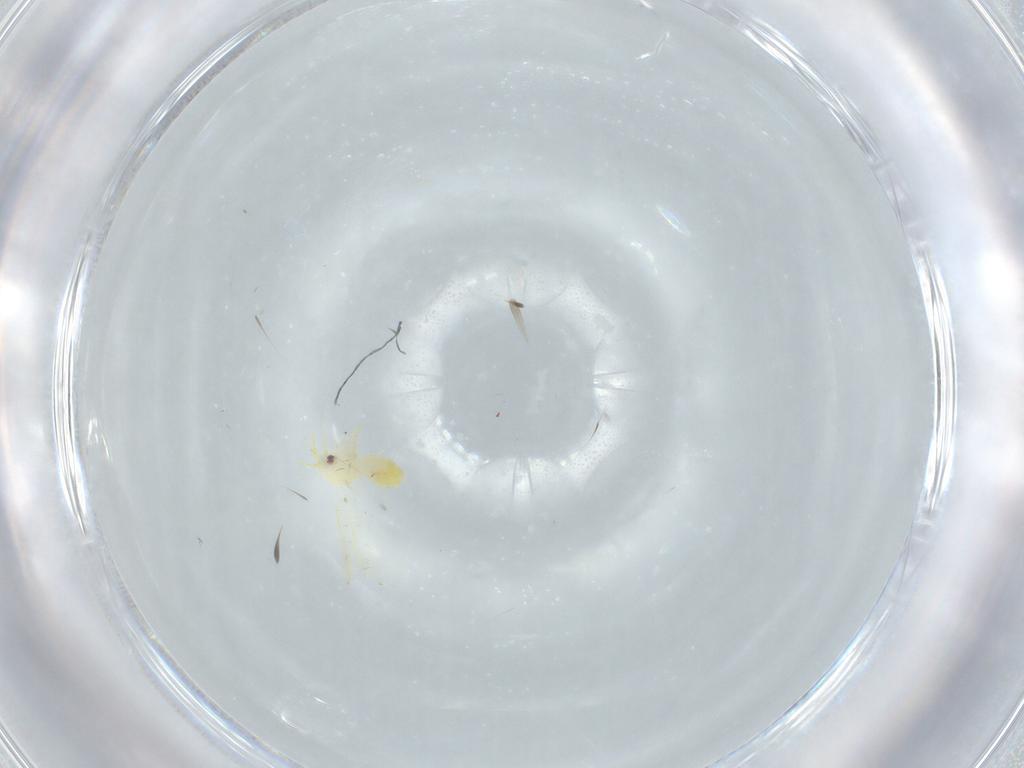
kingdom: Animalia
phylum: Arthropoda
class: Insecta
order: Hemiptera
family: Aleyrodidae
